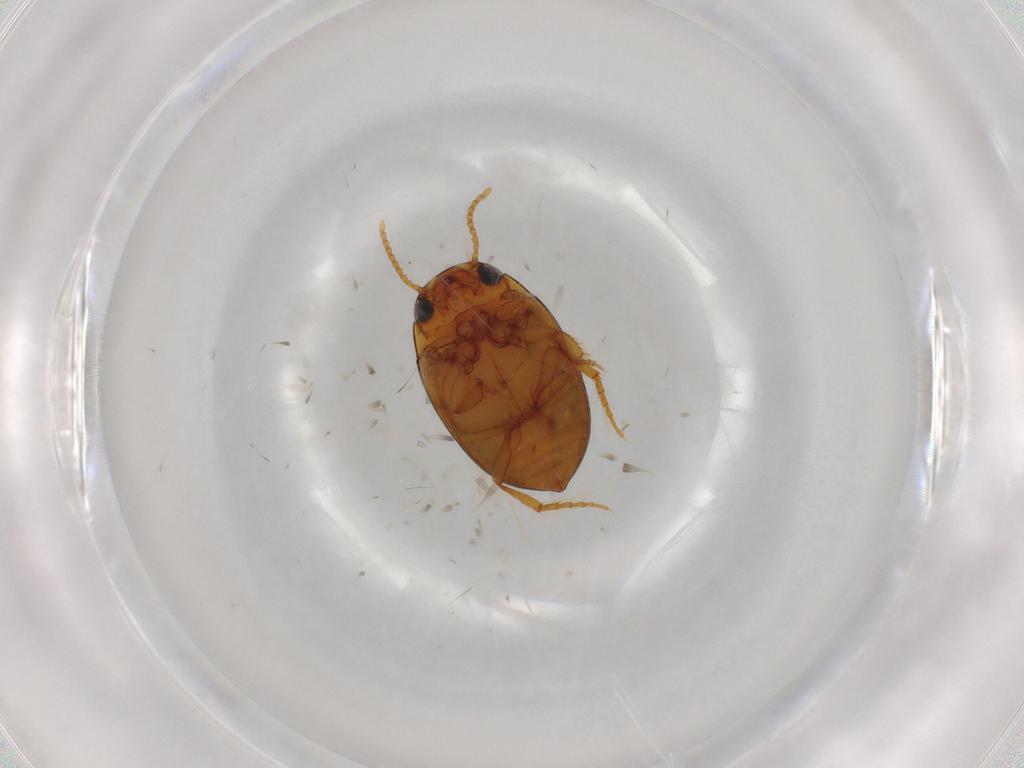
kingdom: Animalia
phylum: Arthropoda
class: Insecta
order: Coleoptera
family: Dytiscidae
